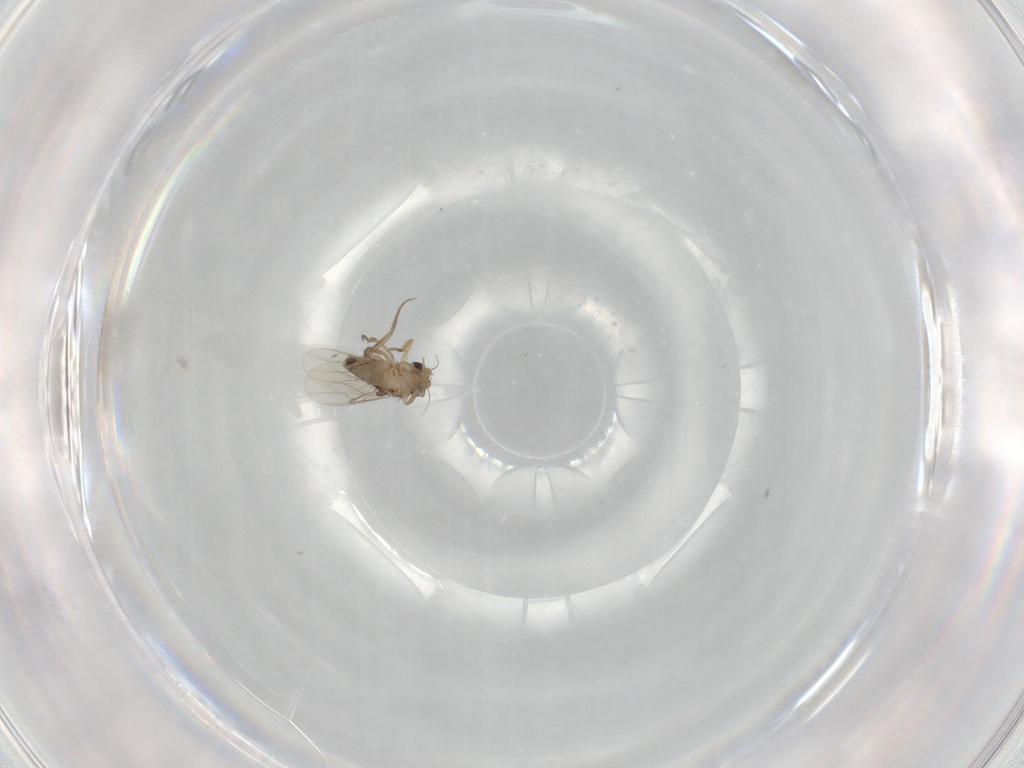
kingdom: Animalia
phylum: Arthropoda
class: Insecta
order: Diptera
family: Phoridae
